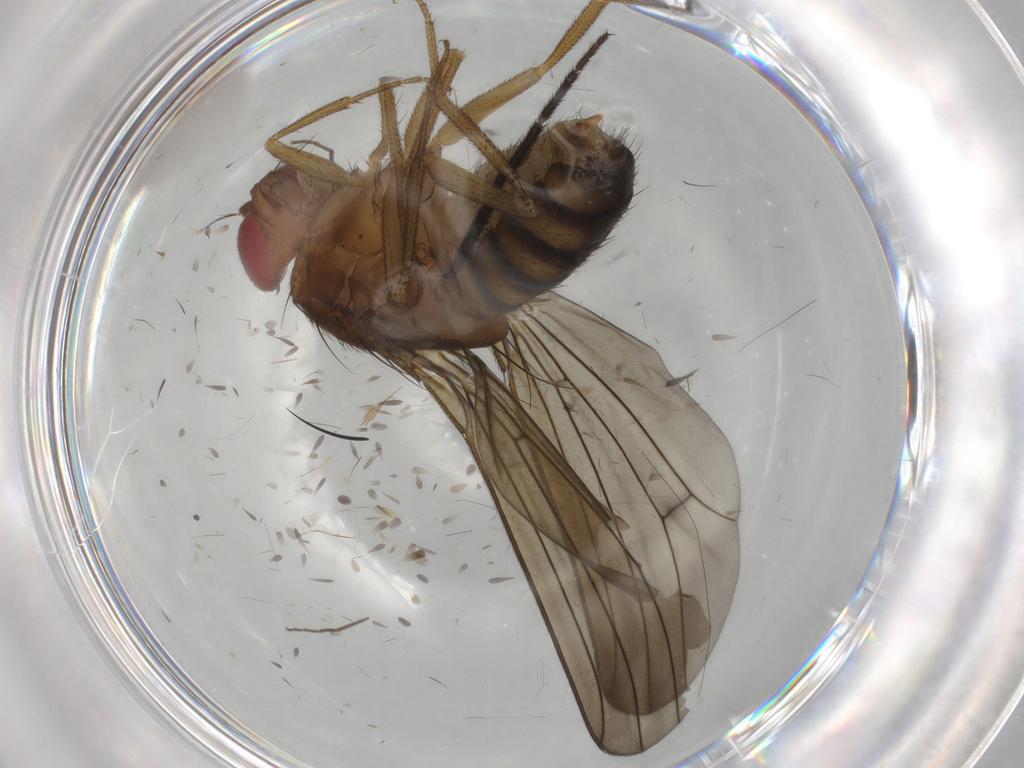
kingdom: Animalia
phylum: Arthropoda
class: Insecta
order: Diptera
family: Drosophilidae
